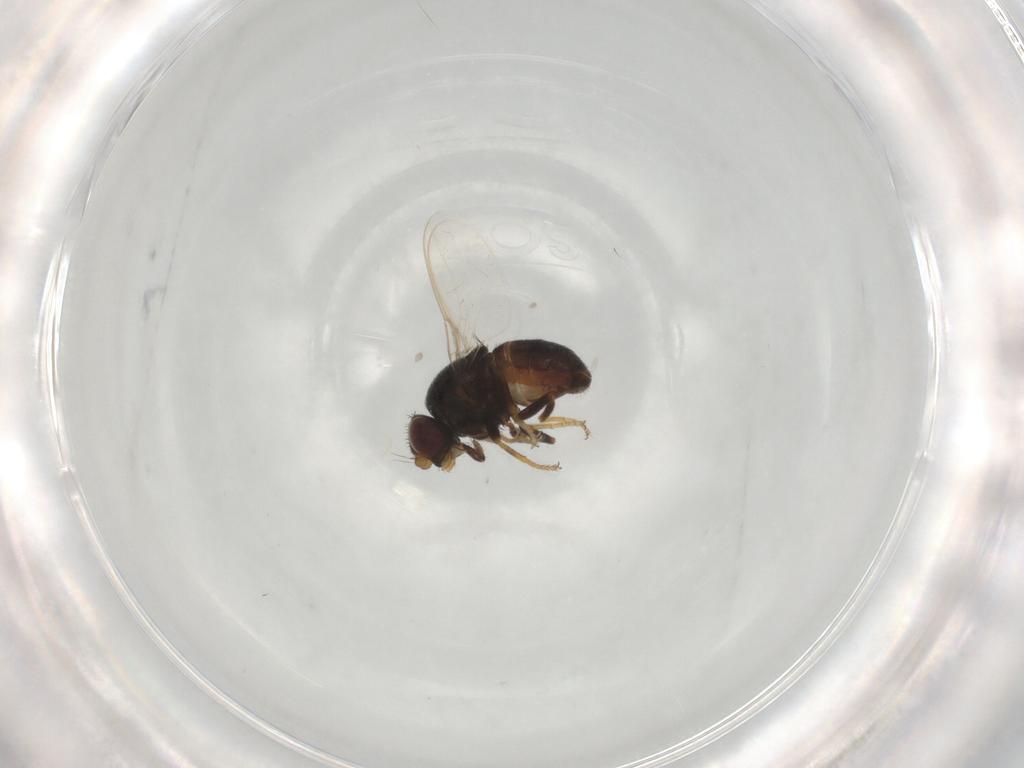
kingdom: Animalia
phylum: Arthropoda
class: Insecta
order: Diptera
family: Chloropidae
